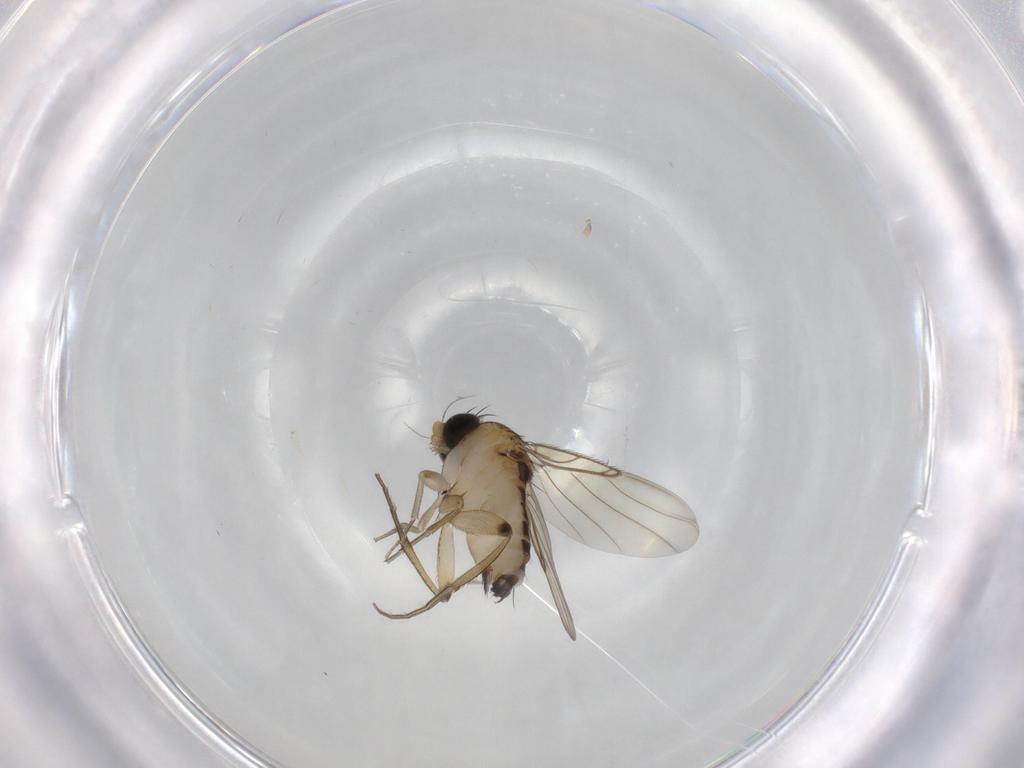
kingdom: Animalia
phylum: Arthropoda
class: Insecta
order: Diptera
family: Phoridae
